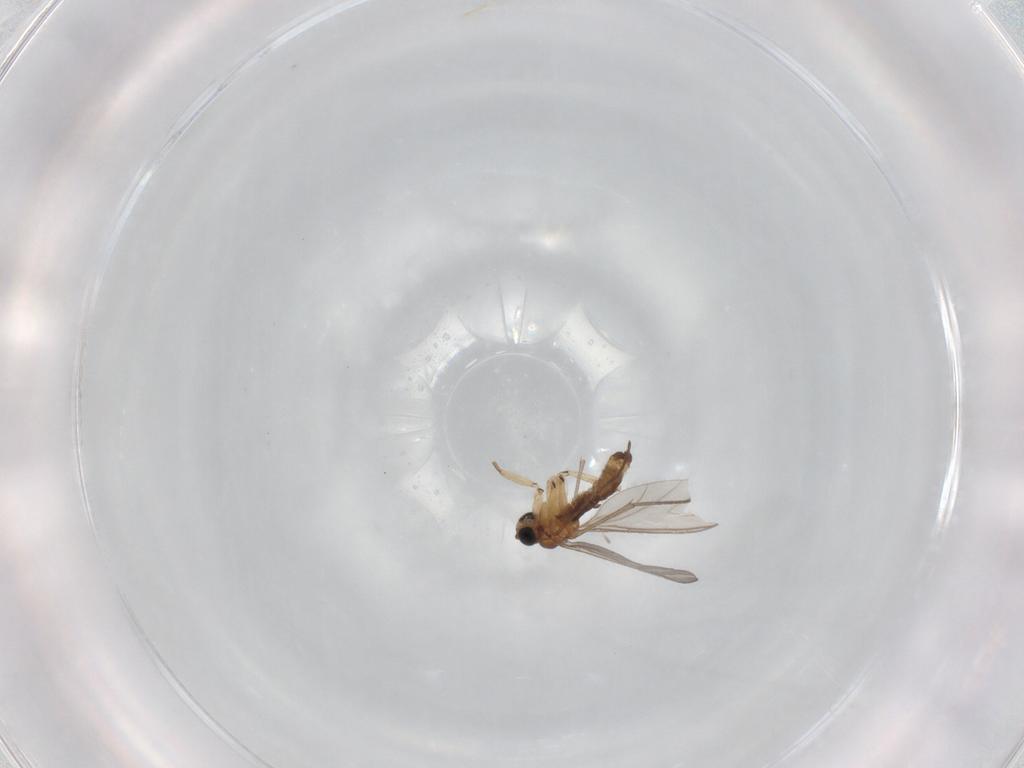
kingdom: Animalia
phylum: Arthropoda
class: Insecta
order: Diptera
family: Sciaridae
